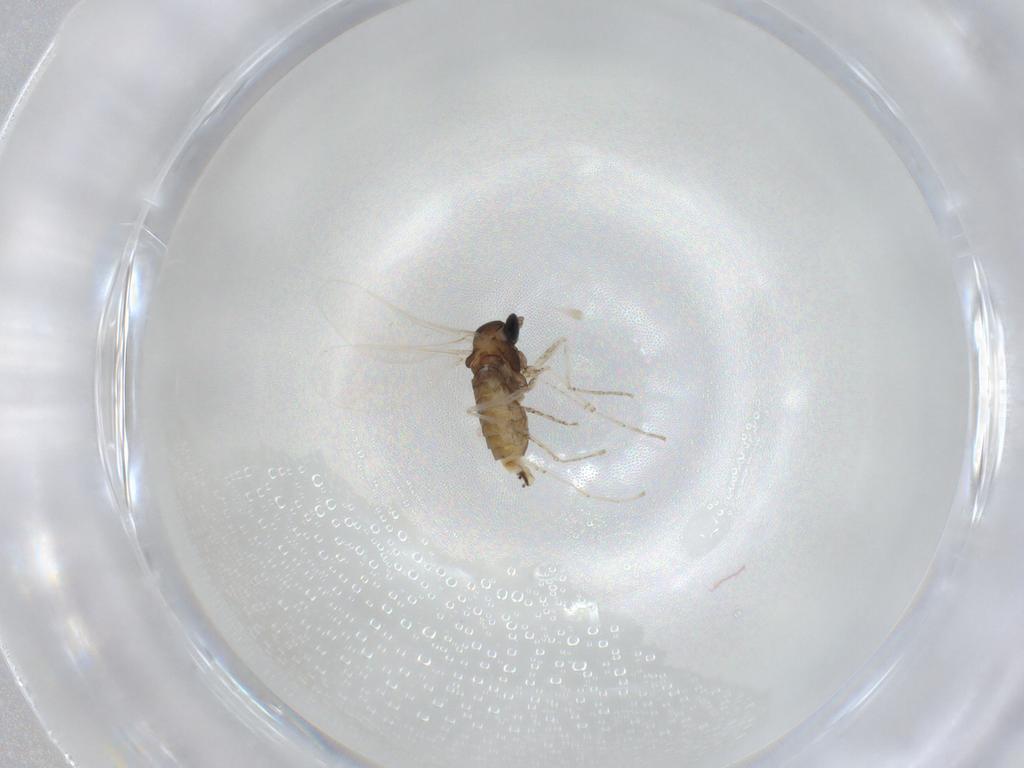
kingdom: Animalia
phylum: Arthropoda
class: Insecta
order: Diptera
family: Cecidomyiidae
